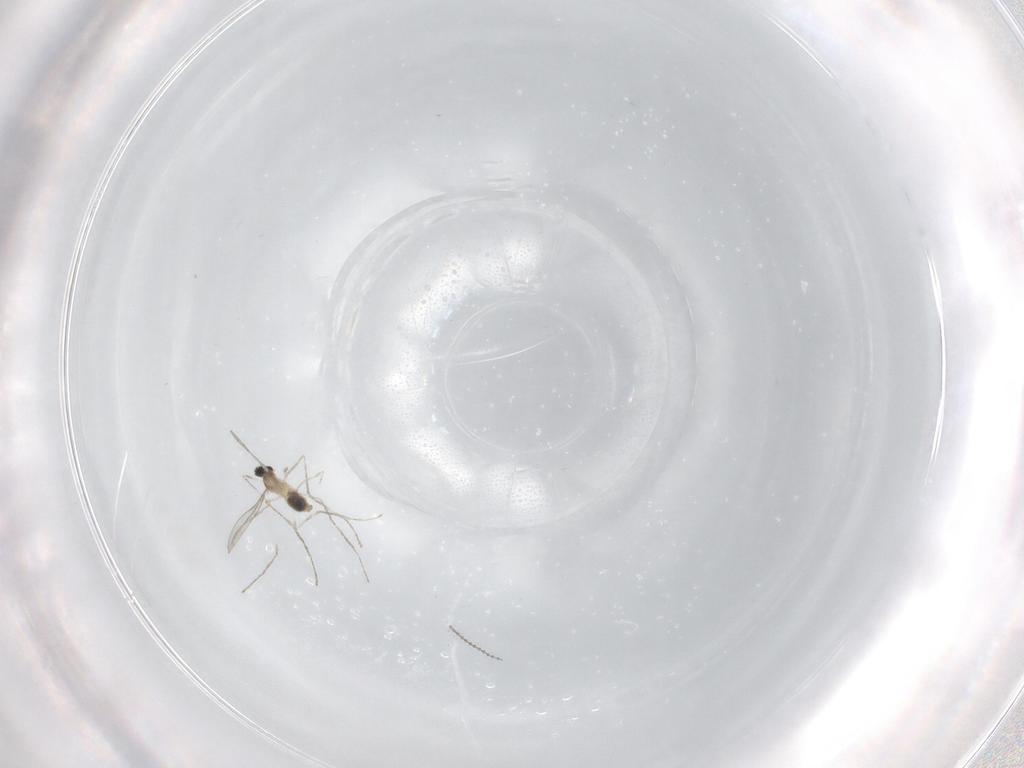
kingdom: Animalia
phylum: Arthropoda
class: Insecta
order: Diptera
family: Cecidomyiidae
